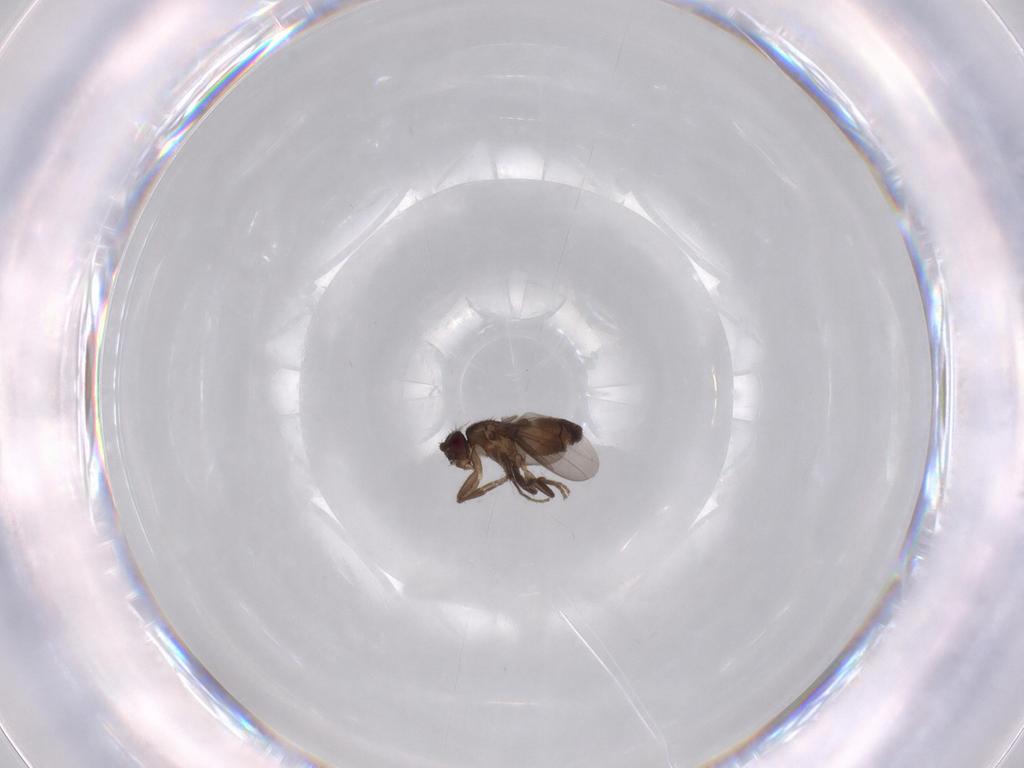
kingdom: Animalia
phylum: Arthropoda
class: Insecta
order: Diptera
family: Sphaeroceridae
